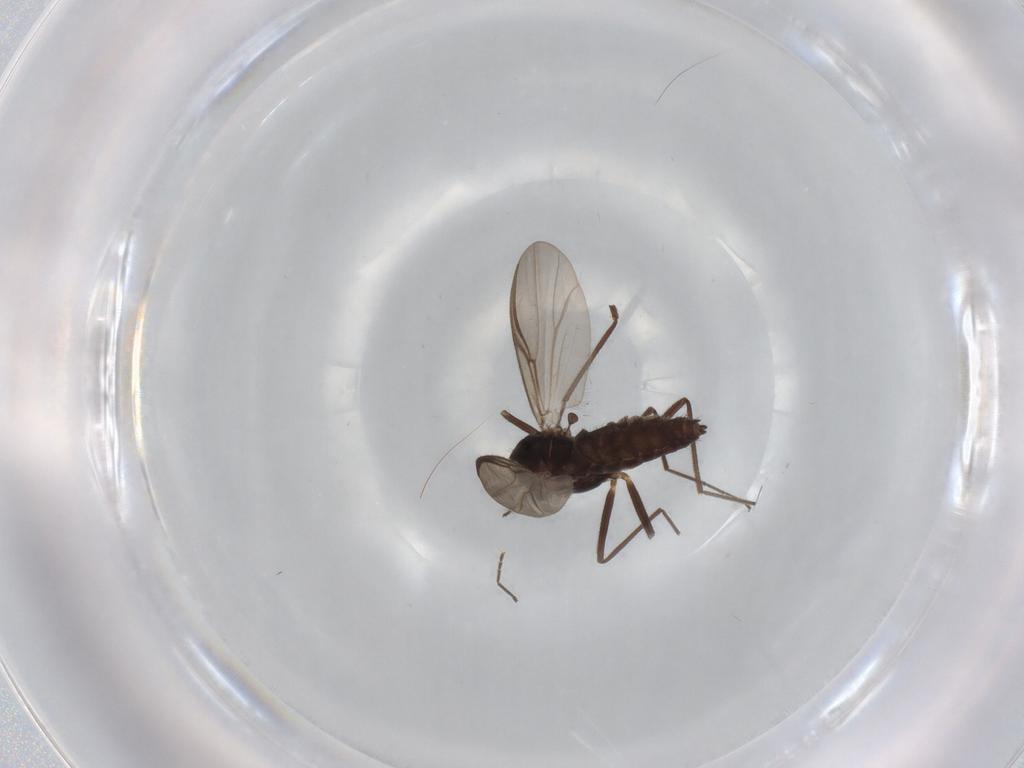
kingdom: Animalia
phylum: Arthropoda
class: Insecta
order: Diptera
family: Chironomidae
